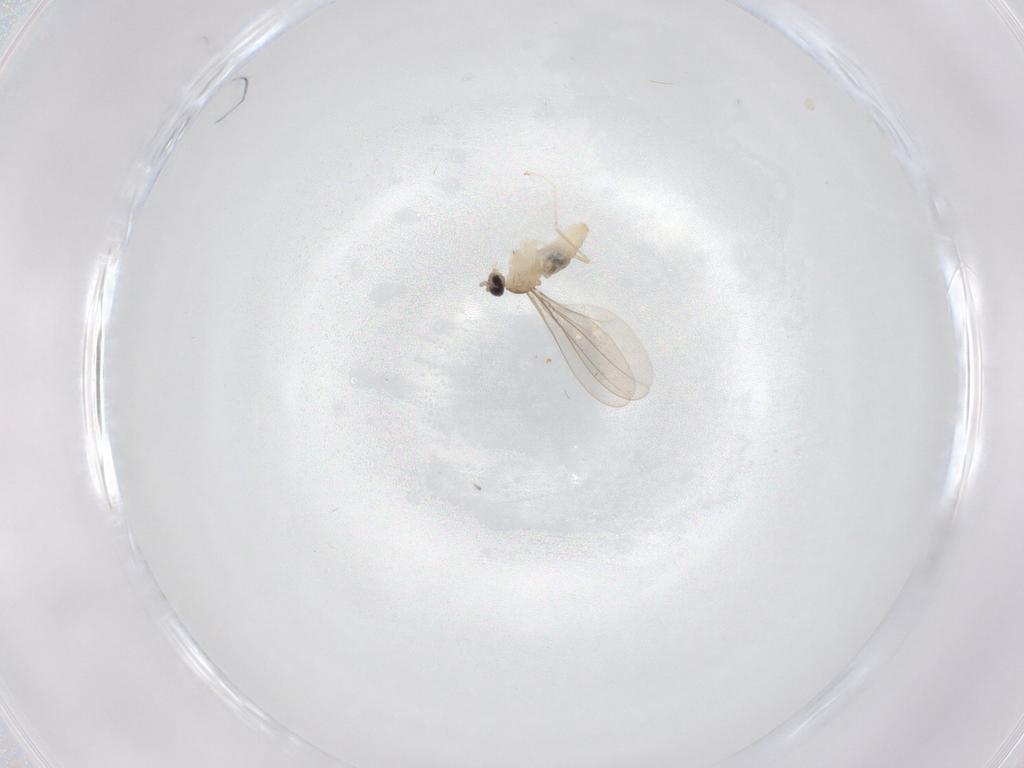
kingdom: Animalia
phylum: Arthropoda
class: Insecta
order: Diptera
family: Cecidomyiidae
